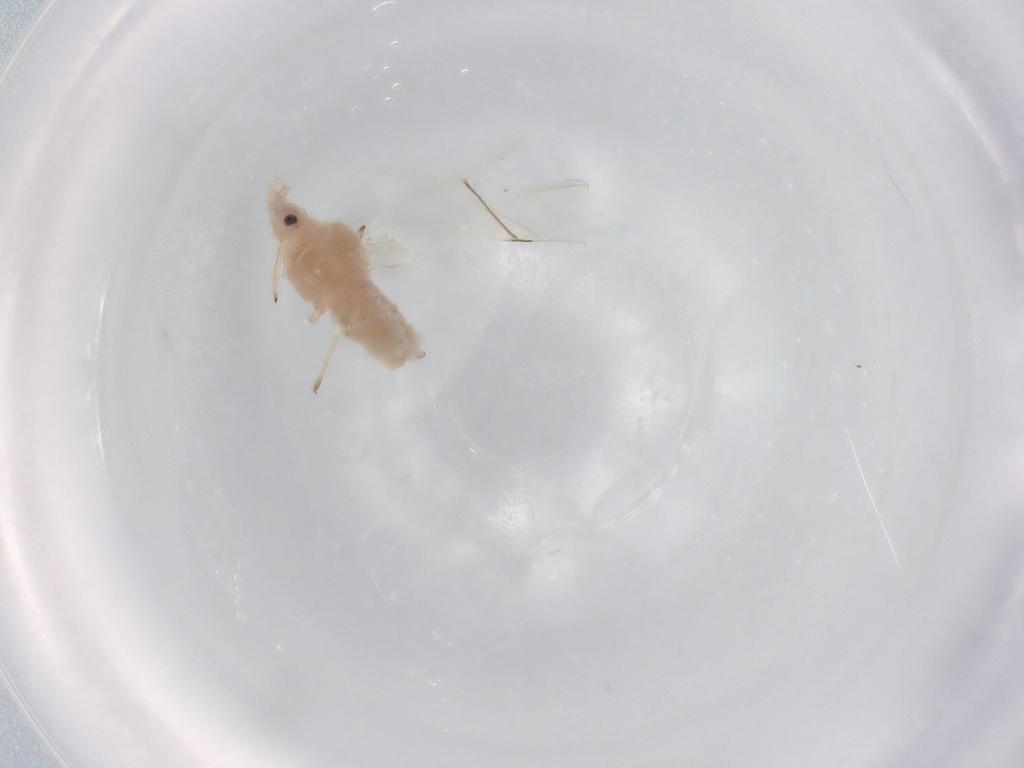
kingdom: Animalia
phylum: Arthropoda
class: Insecta
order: Hemiptera
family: Aphididae
